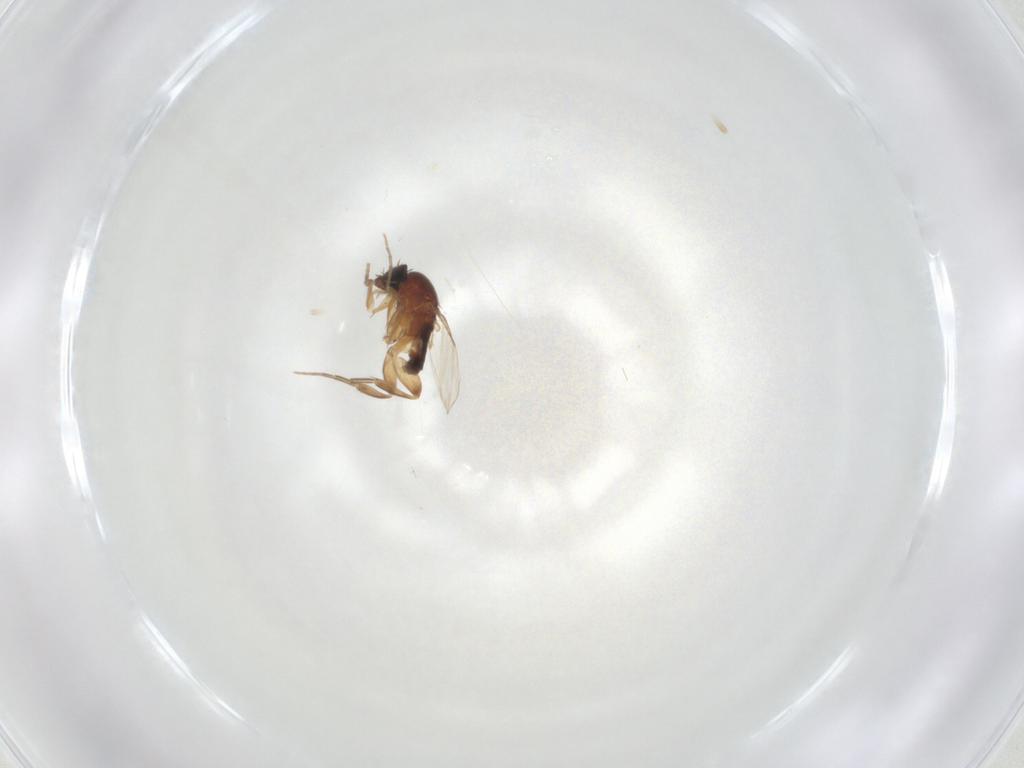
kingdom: Animalia
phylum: Arthropoda
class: Insecta
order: Diptera
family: Phoridae
